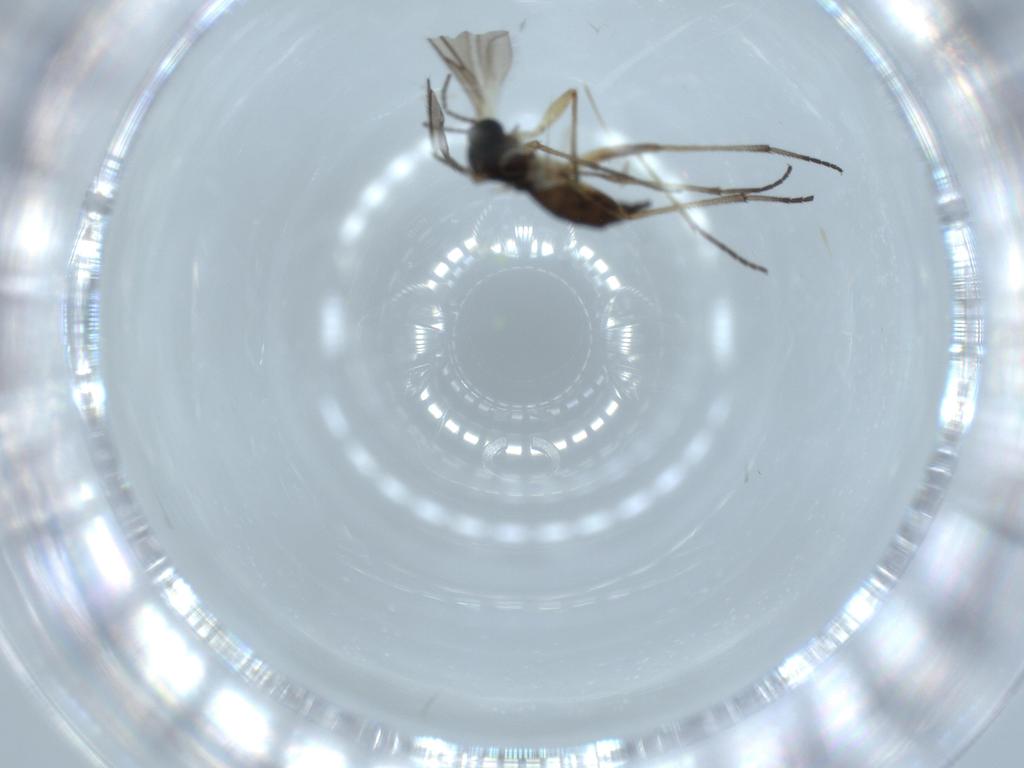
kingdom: Animalia
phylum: Arthropoda
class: Insecta
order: Diptera
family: Sciaridae
